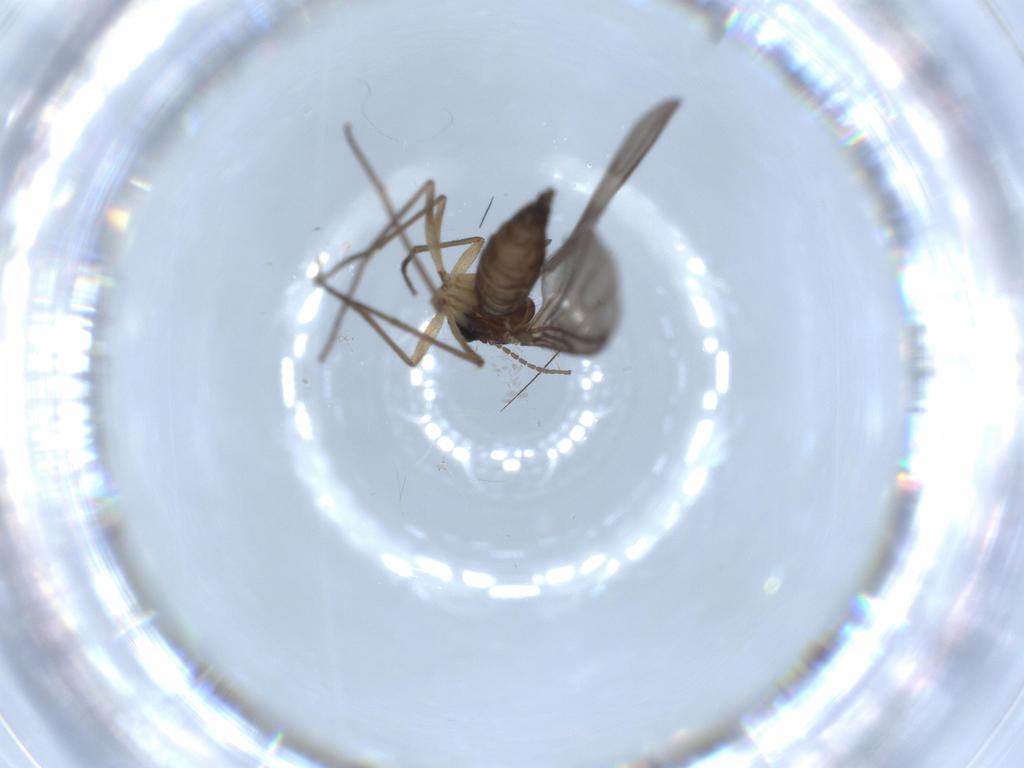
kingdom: Animalia
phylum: Arthropoda
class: Insecta
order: Diptera
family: Sciaridae
